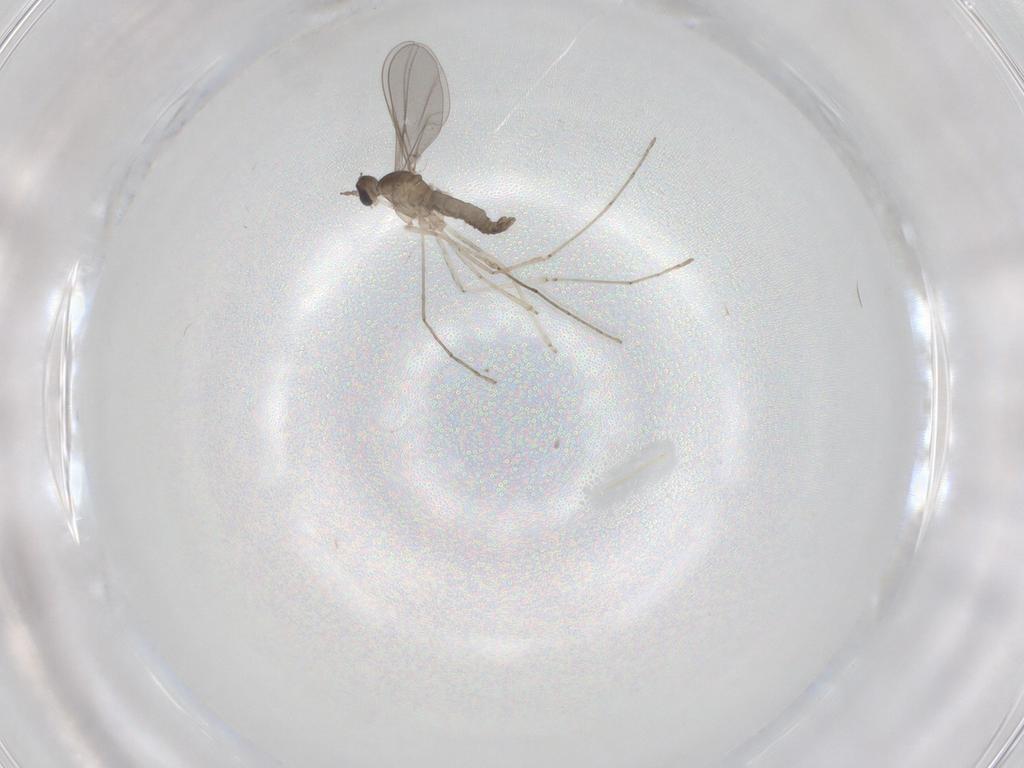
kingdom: Animalia
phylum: Arthropoda
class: Insecta
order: Diptera
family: Cecidomyiidae
